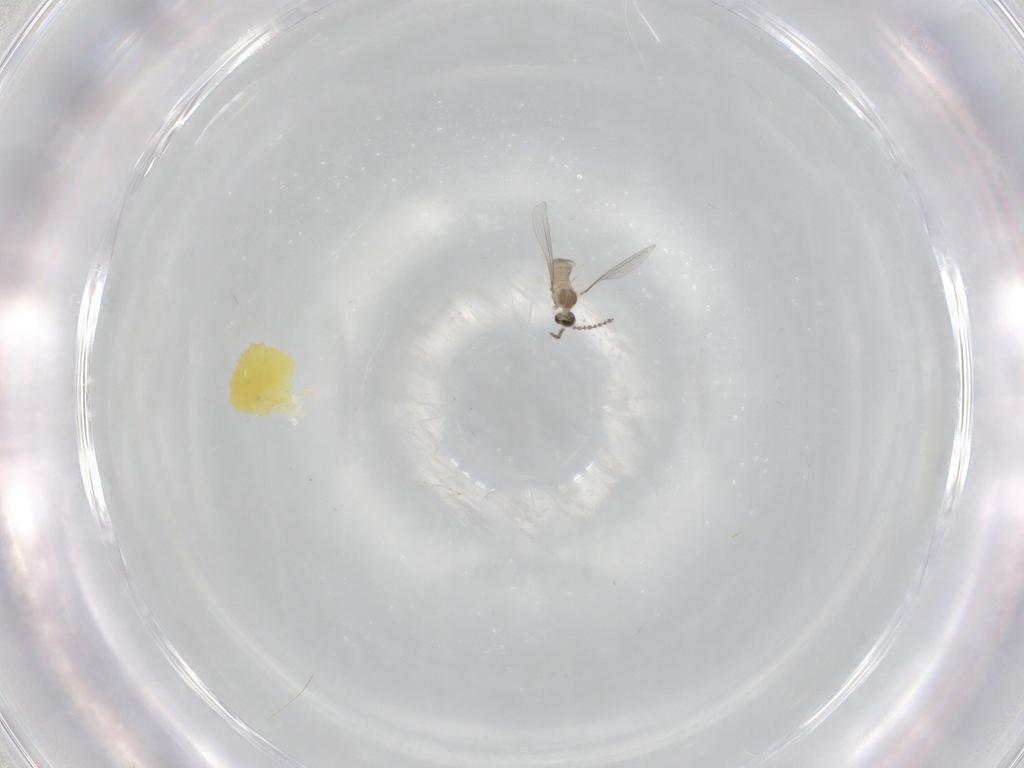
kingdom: Animalia
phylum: Arthropoda
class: Insecta
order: Diptera
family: Cecidomyiidae
